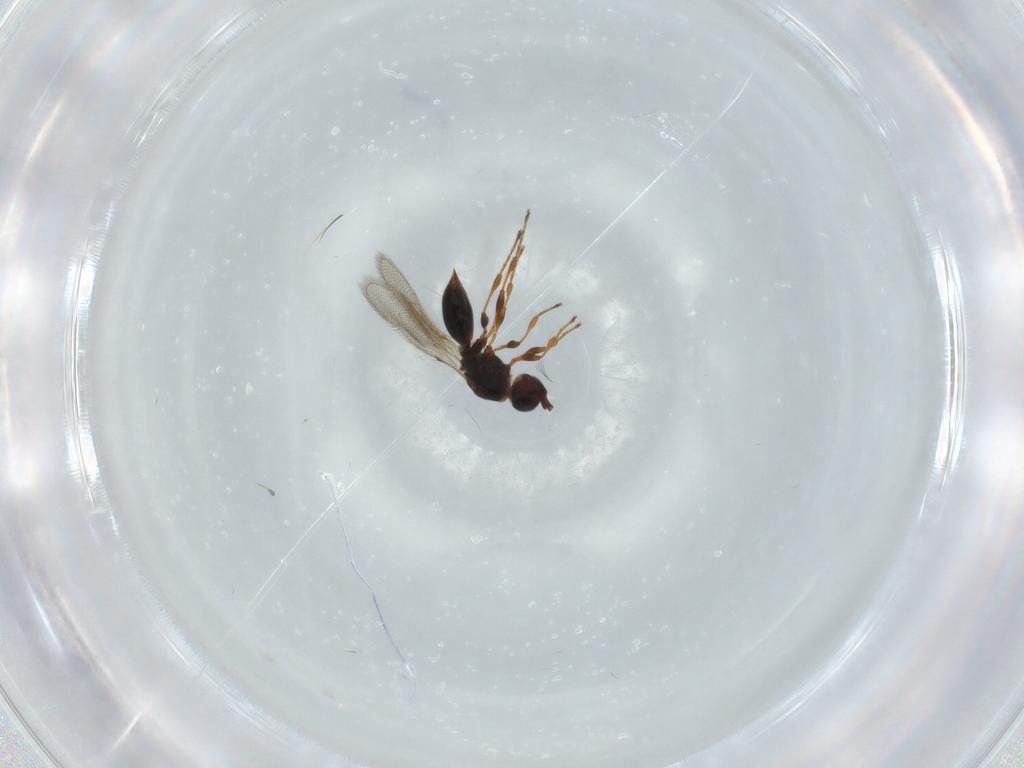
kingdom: Animalia
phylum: Arthropoda
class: Insecta
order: Hymenoptera
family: Diapriidae
